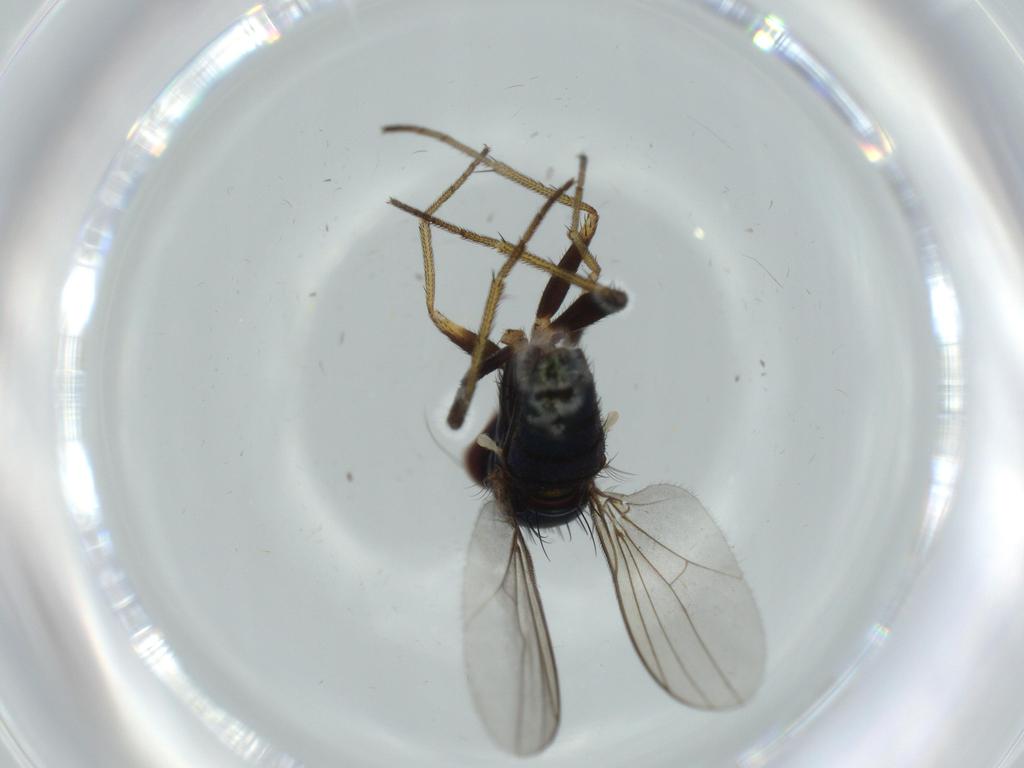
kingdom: Animalia
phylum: Arthropoda
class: Insecta
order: Diptera
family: Dolichopodidae
